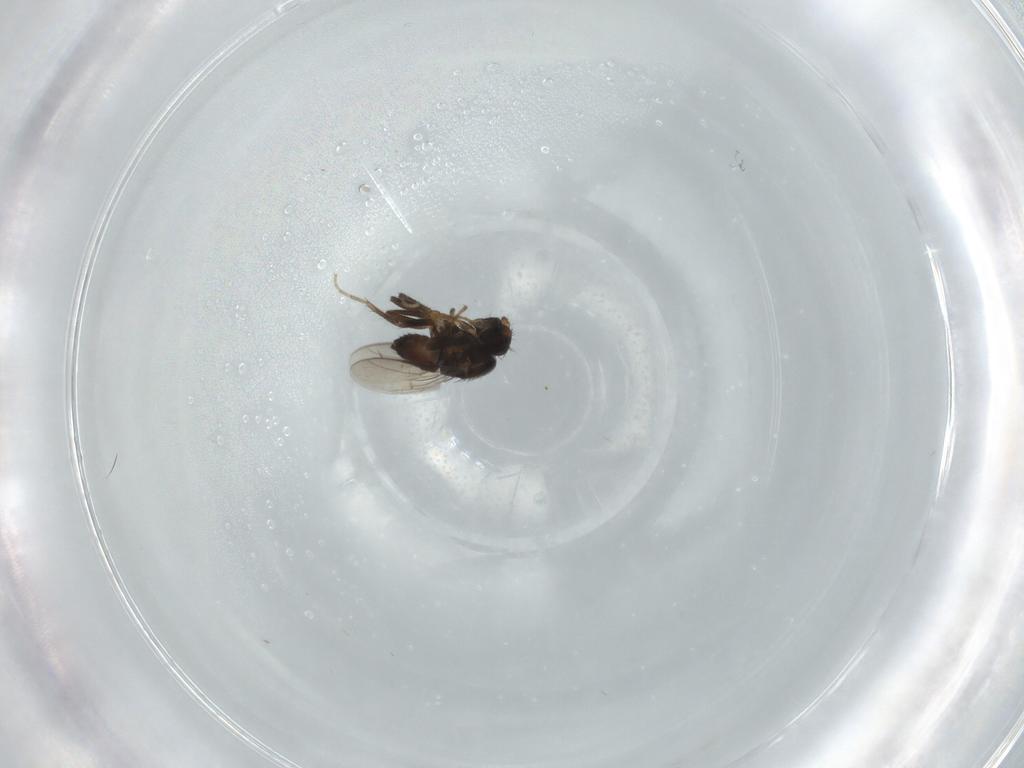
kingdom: Animalia
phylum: Arthropoda
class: Insecta
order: Diptera
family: Sphaeroceridae
